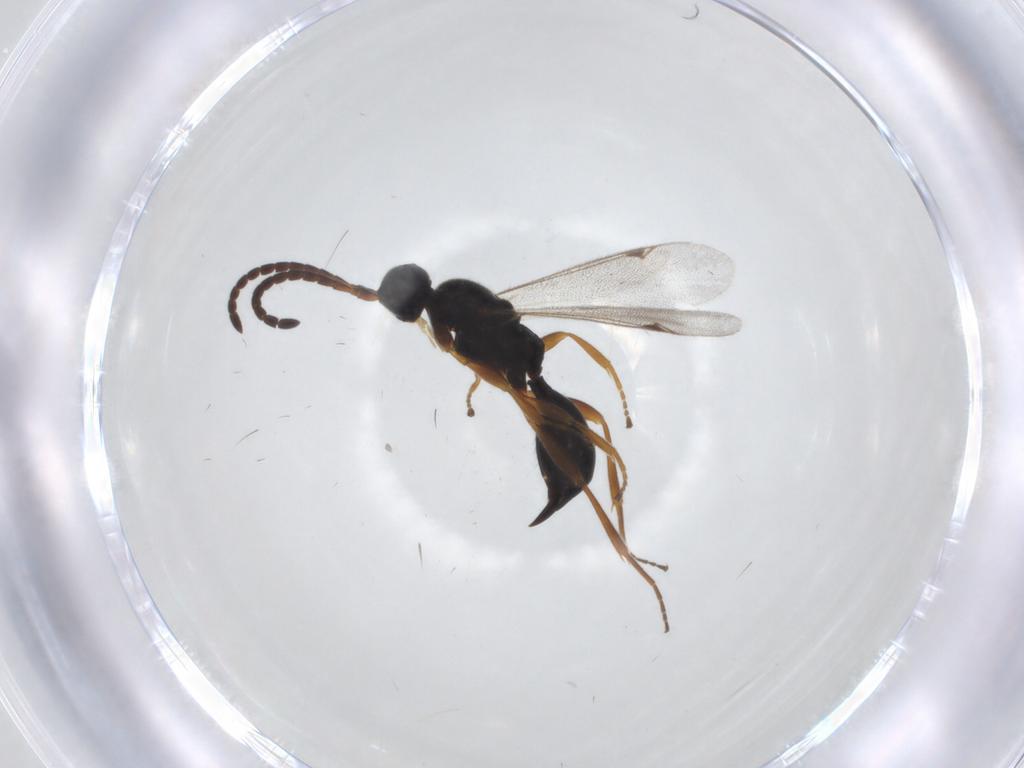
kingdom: Animalia
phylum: Arthropoda
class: Insecta
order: Hymenoptera
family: Proctotrupidae
